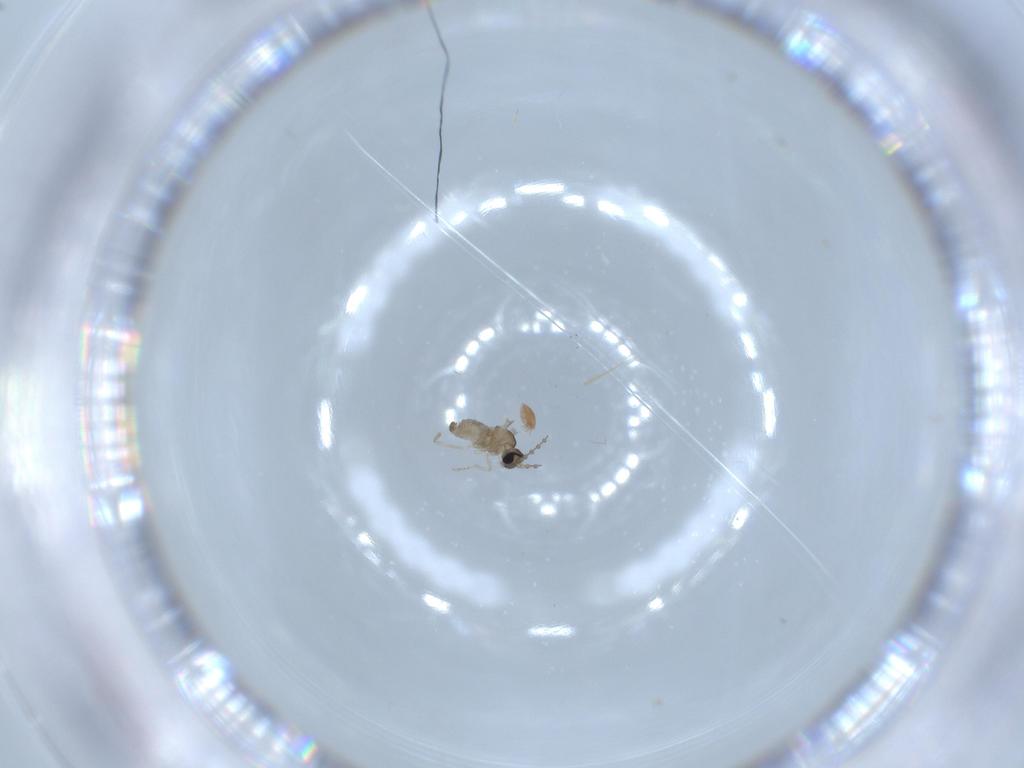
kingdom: Animalia
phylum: Arthropoda
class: Insecta
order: Diptera
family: Cecidomyiidae
